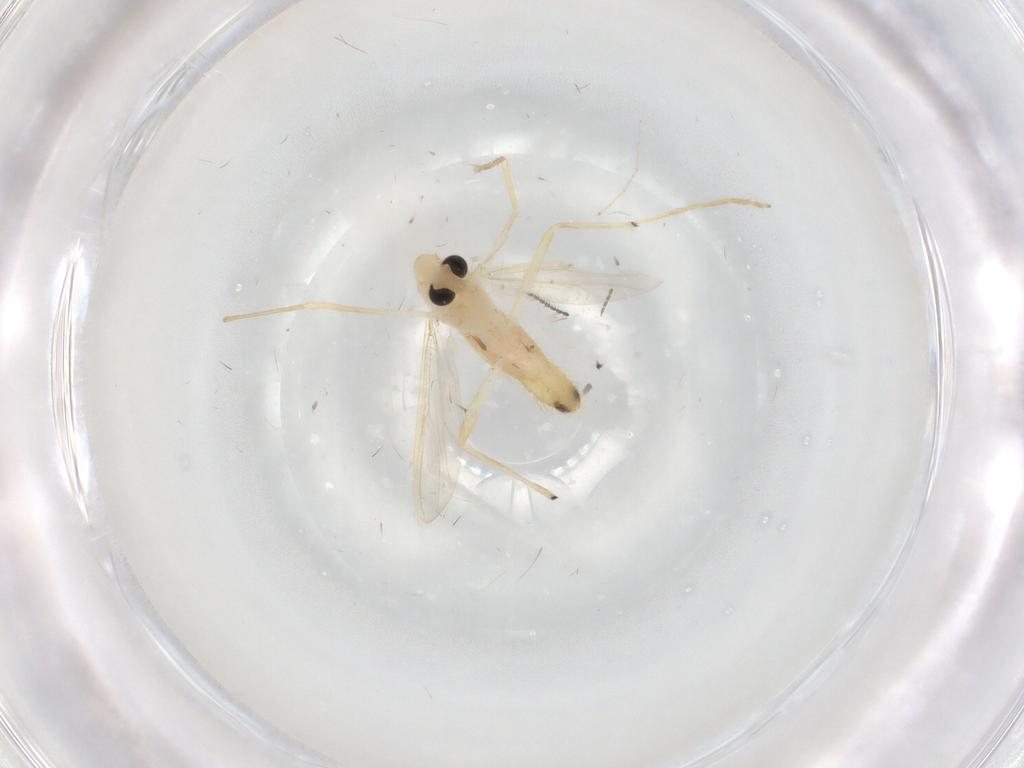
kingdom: Animalia
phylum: Arthropoda
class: Insecta
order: Diptera
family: Chironomidae
